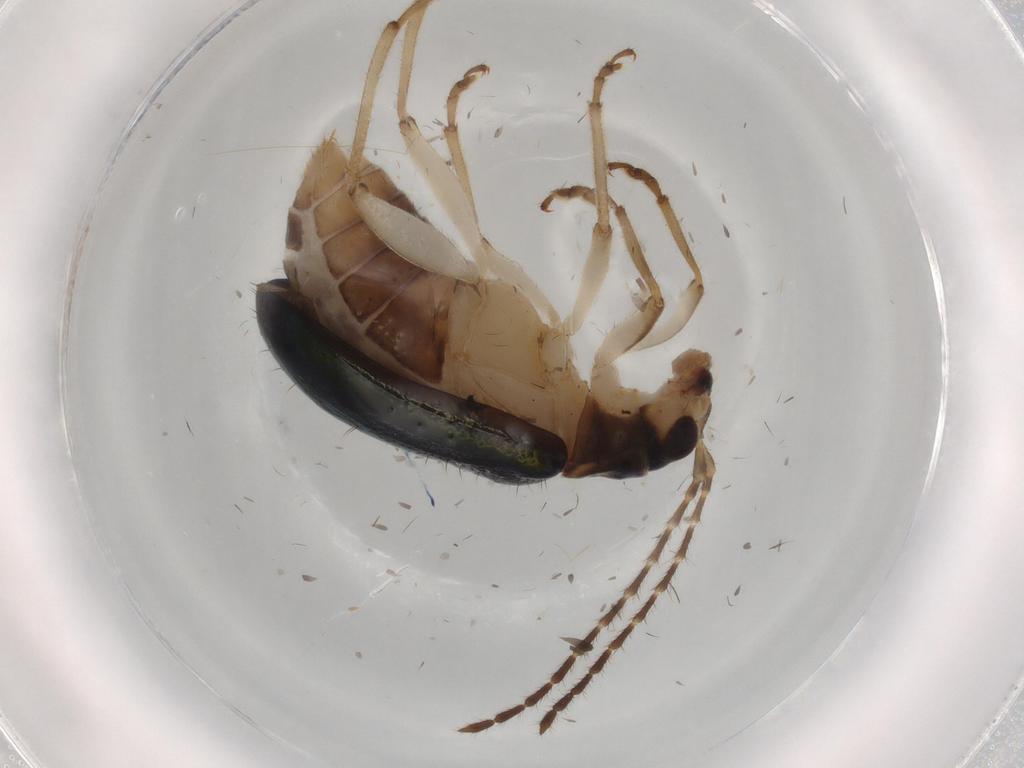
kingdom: Animalia
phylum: Arthropoda
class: Insecta
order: Coleoptera
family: Chrysomelidae
